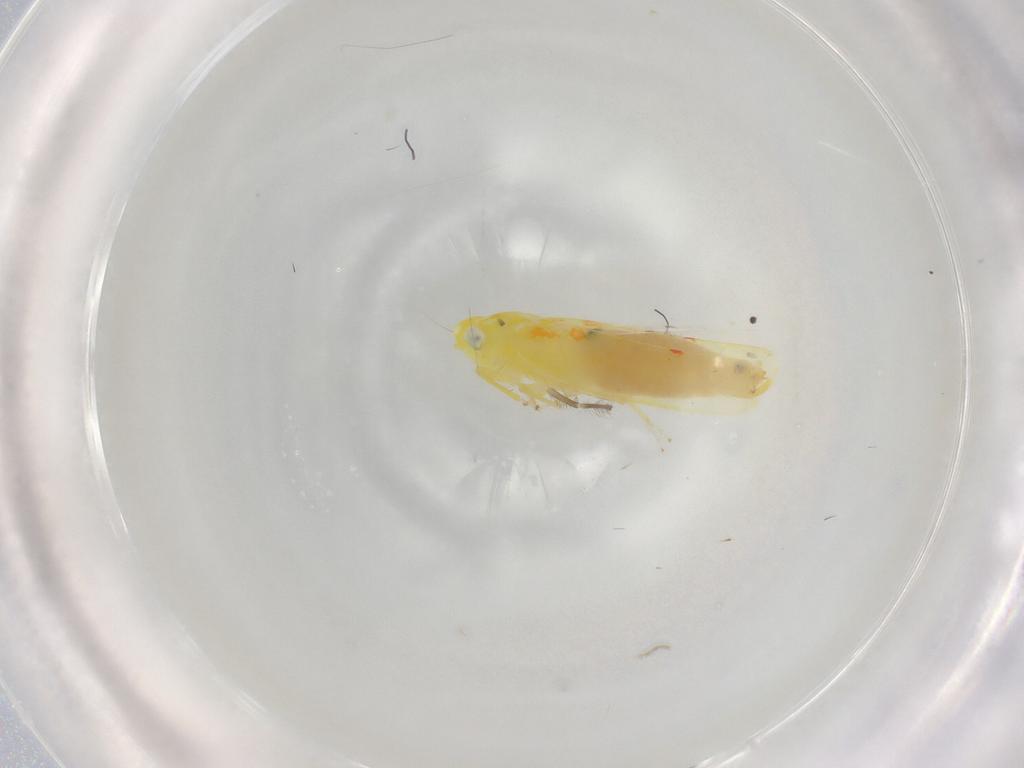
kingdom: Animalia
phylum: Arthropoda
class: Insecta
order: Hemiptera
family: Cicadellidae
